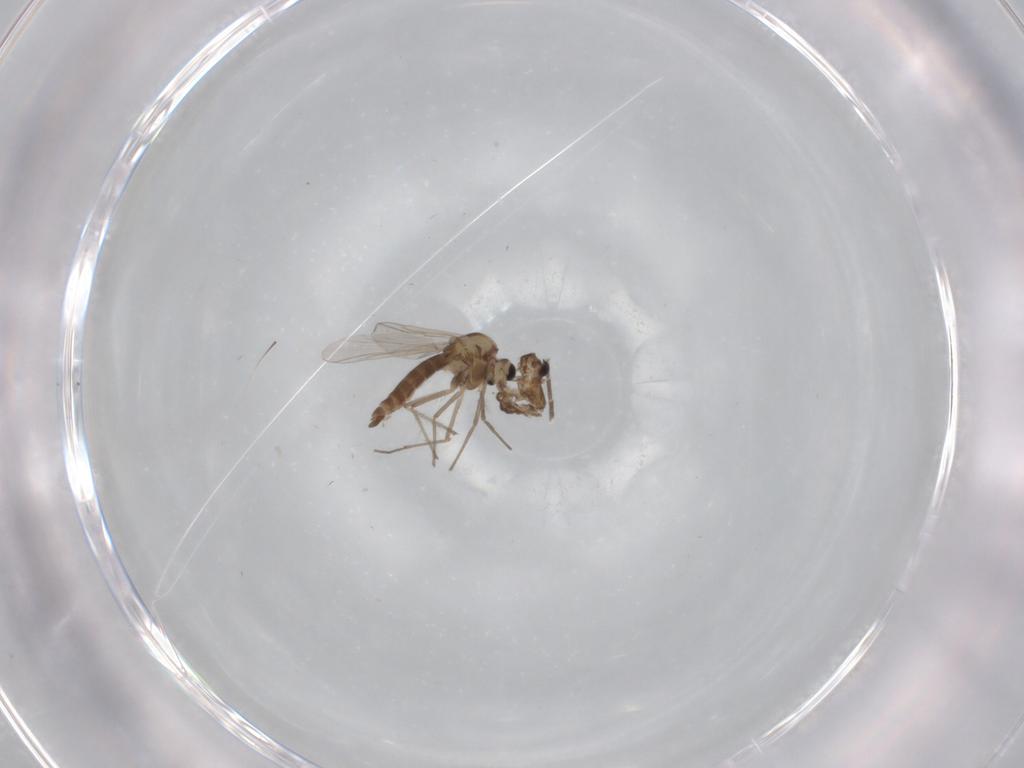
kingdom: Animalia
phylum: Arthropoda
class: Insecta
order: Diptera
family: Chironomidae
